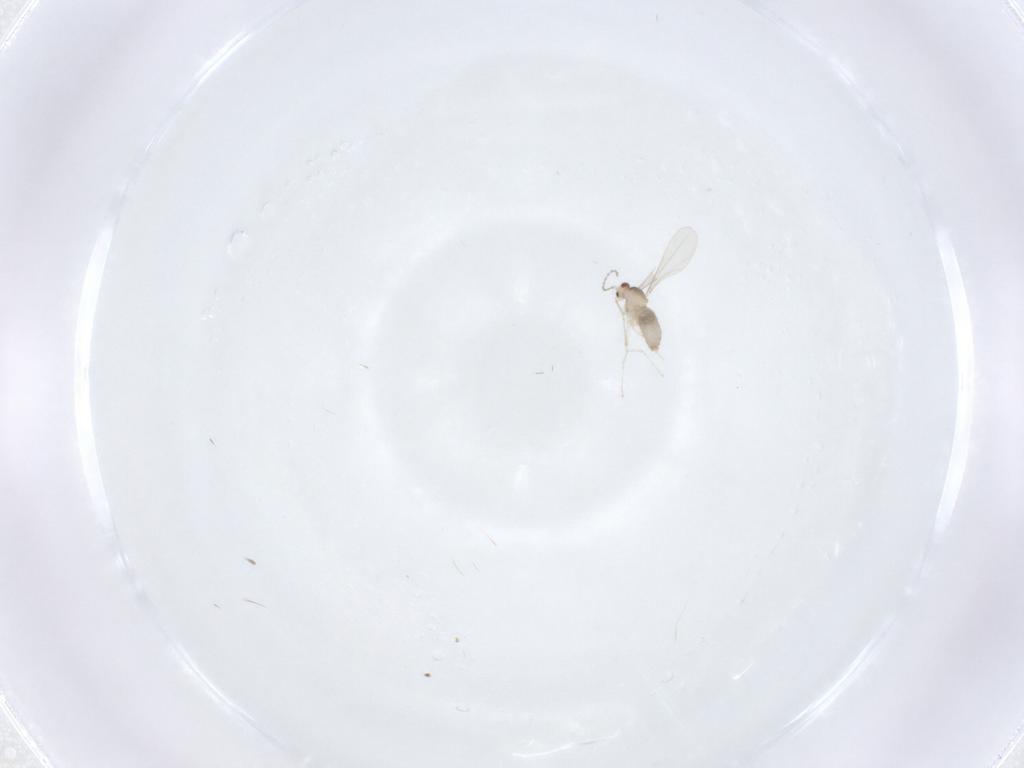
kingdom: Animalia
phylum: Arthropoda
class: Insecta
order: Diptera
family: Cecidomyiidae
